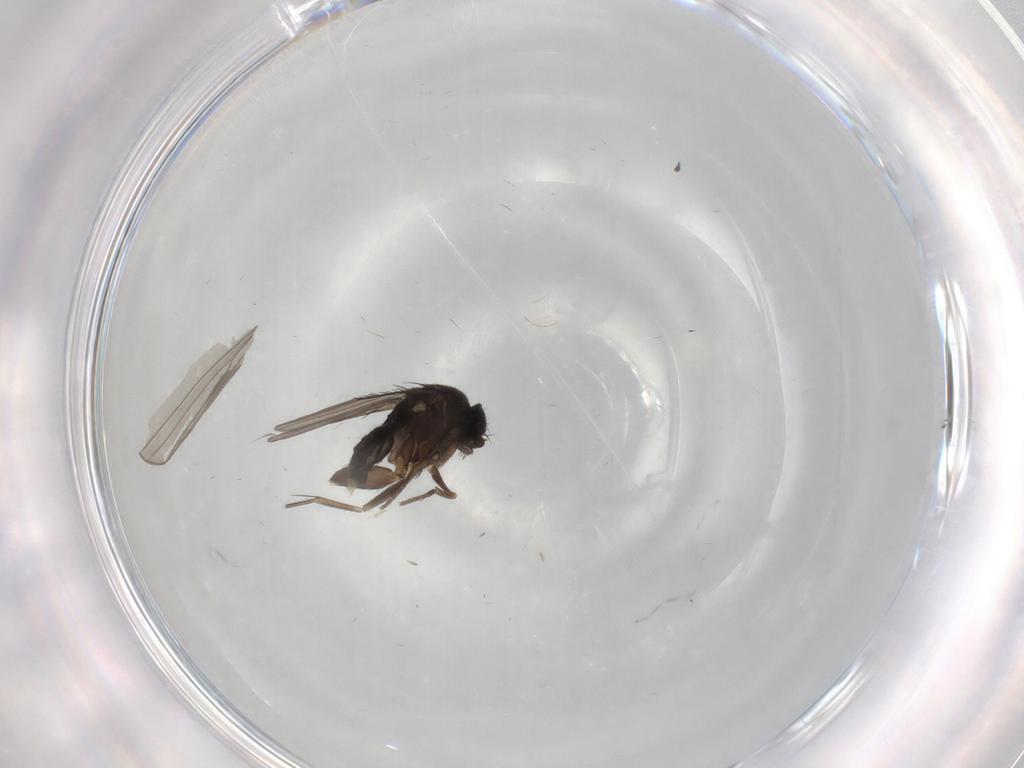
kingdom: Animalia
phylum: Arthropoda
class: Insecta
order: Diptera
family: Phoridae
